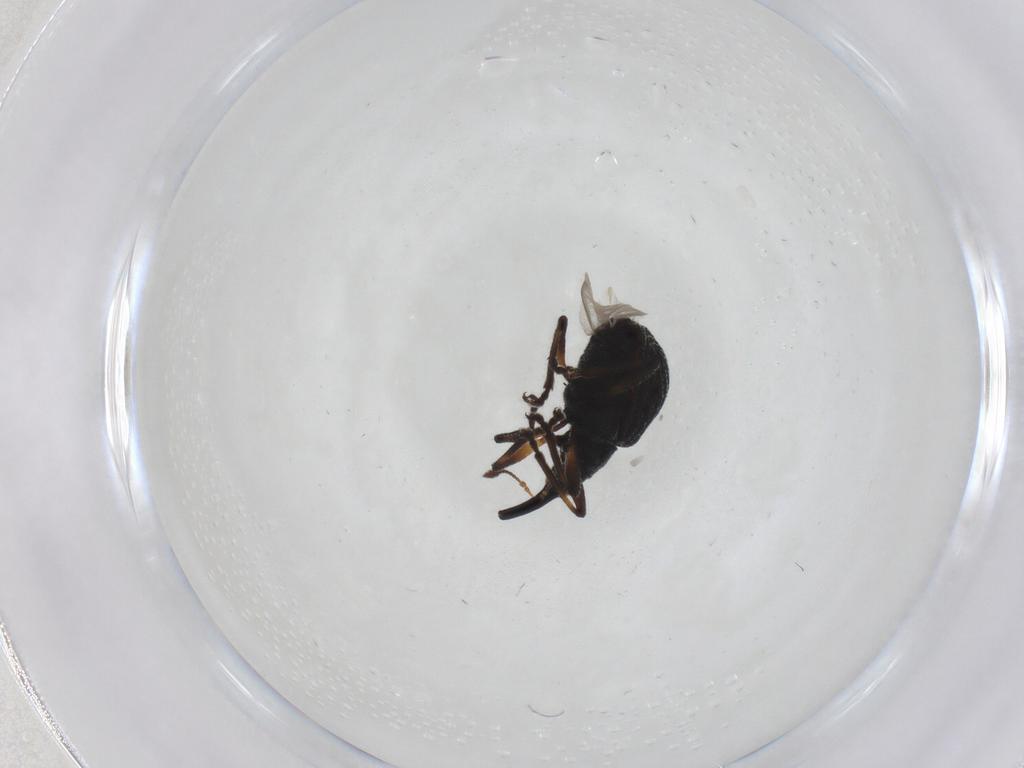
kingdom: Animalia
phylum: Arthropoda
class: Insecta
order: Coleoptera
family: Brentidae
